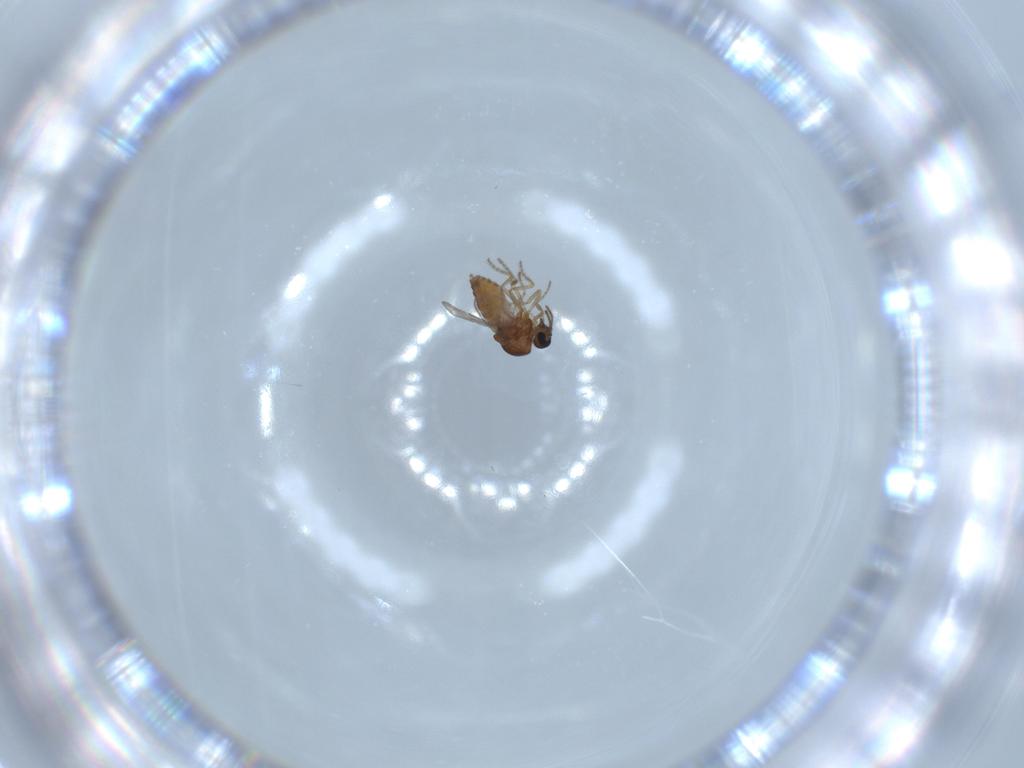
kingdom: Animalia
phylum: Arthropoda
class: Insecta
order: Diptera
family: Ceratopogonidae
